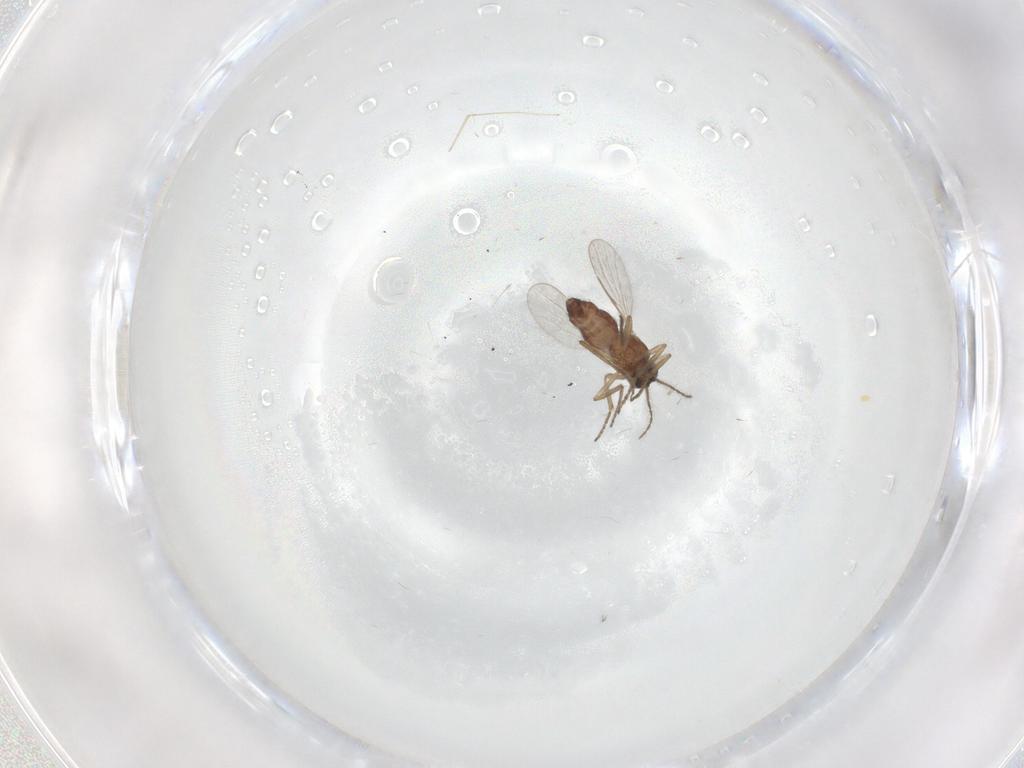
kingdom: Animalia
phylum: Arthropoda
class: Insecta
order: Diptera
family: Ceratopogonidae
